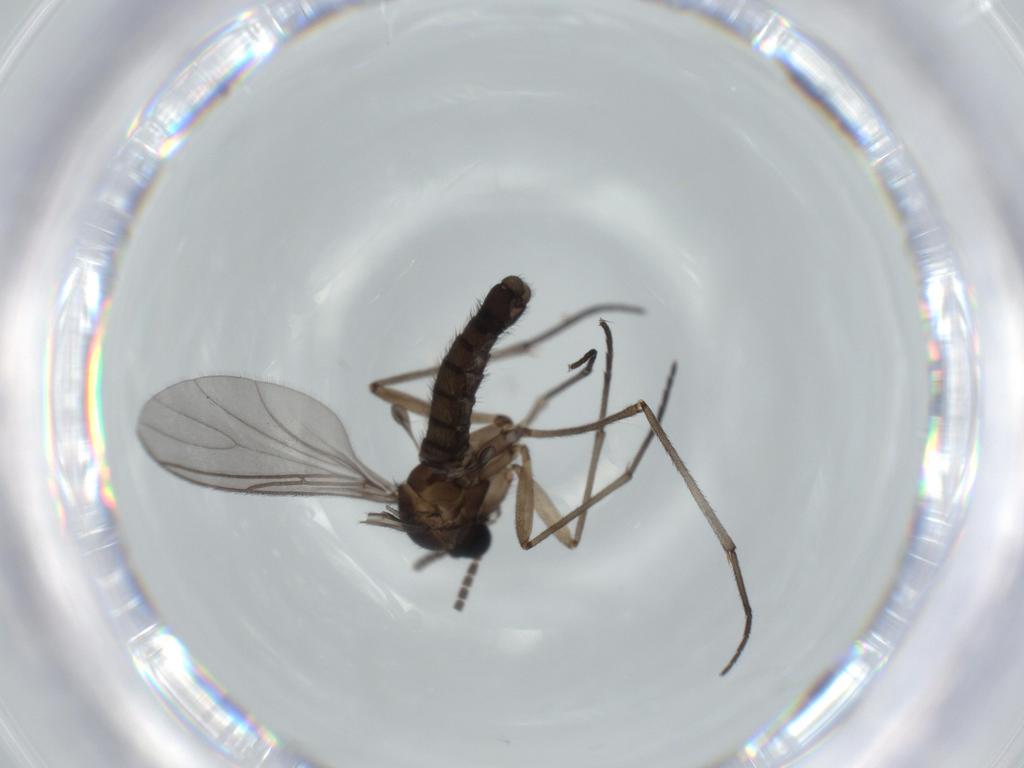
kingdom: Animalia
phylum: Arthropoda
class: Insecta
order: Diptera
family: Sciaridae
